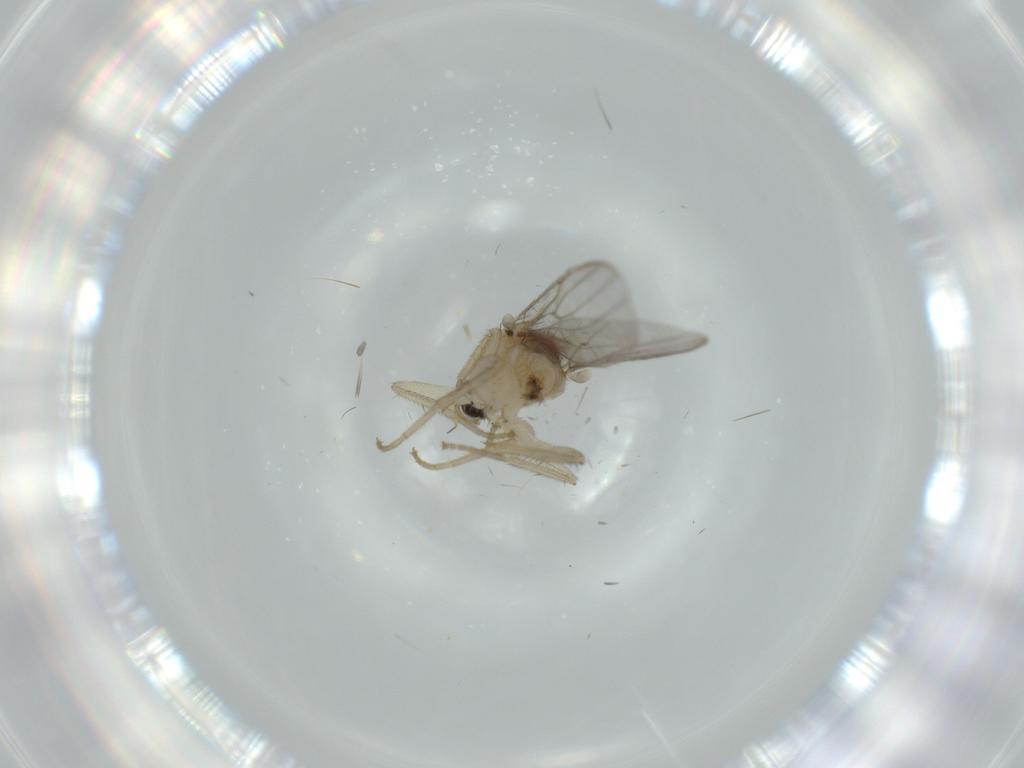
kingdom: Animalia
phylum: Arthropoda
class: Insecta
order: Diptera
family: Hybotidae
